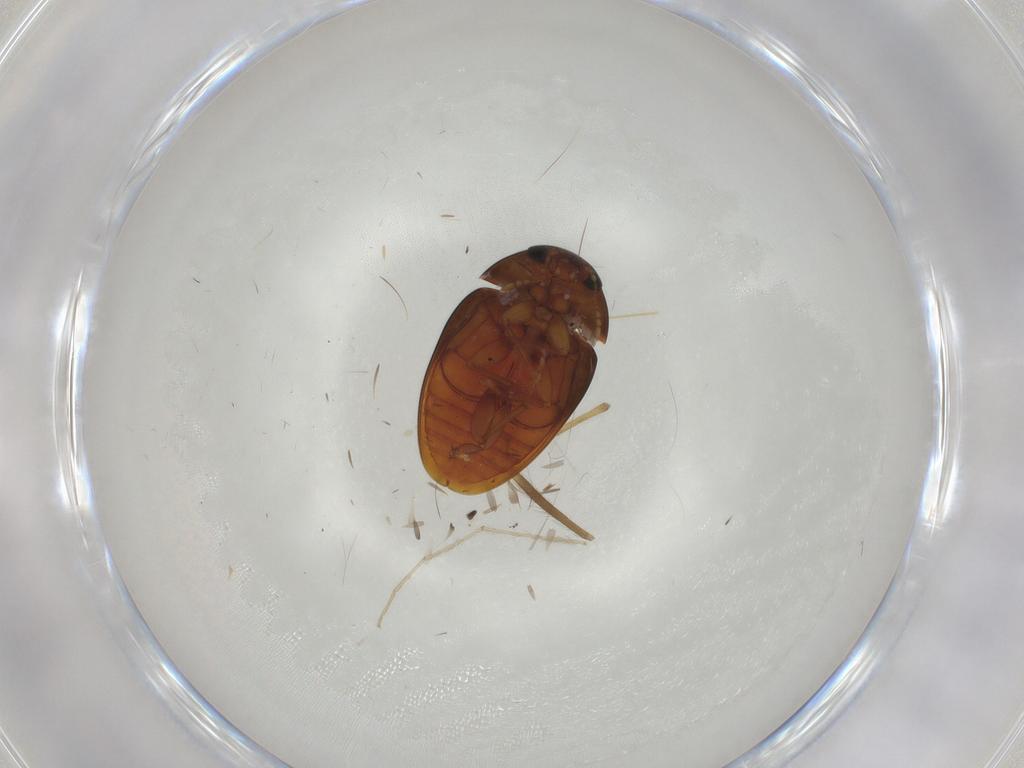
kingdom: Animalia
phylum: Arthropoda
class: Insecta
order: Coleoptera
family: Phalacridae
